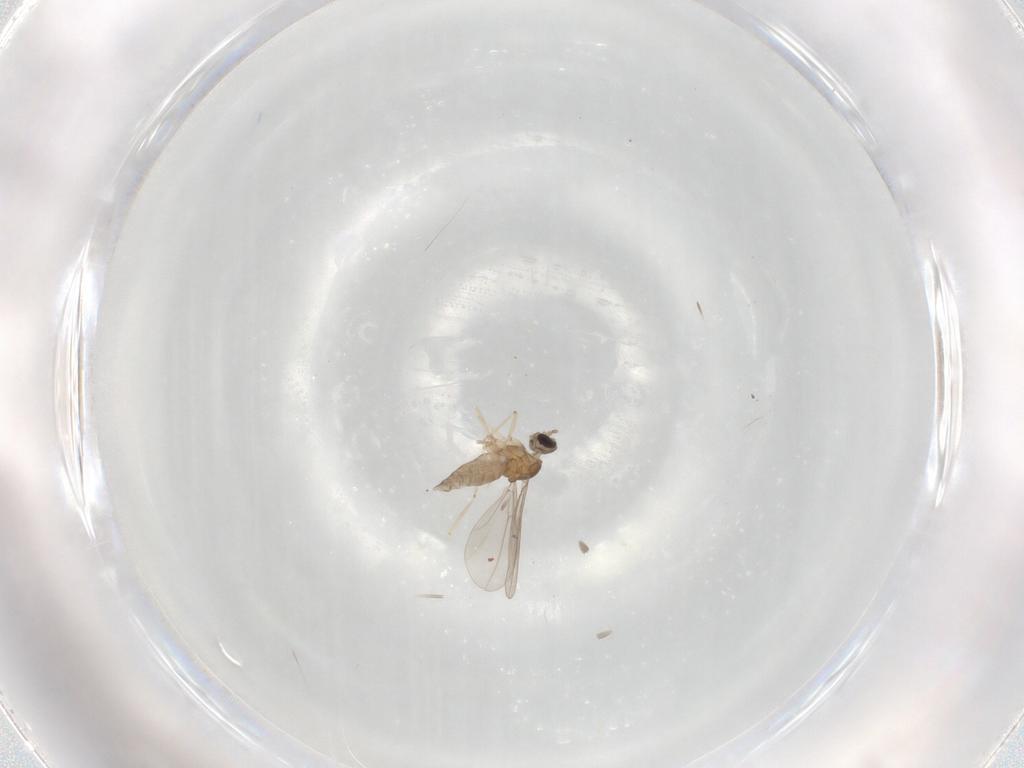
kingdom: Animalia
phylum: Arthropoda
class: Insecta
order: Diptera
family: Cecidomyiidae
